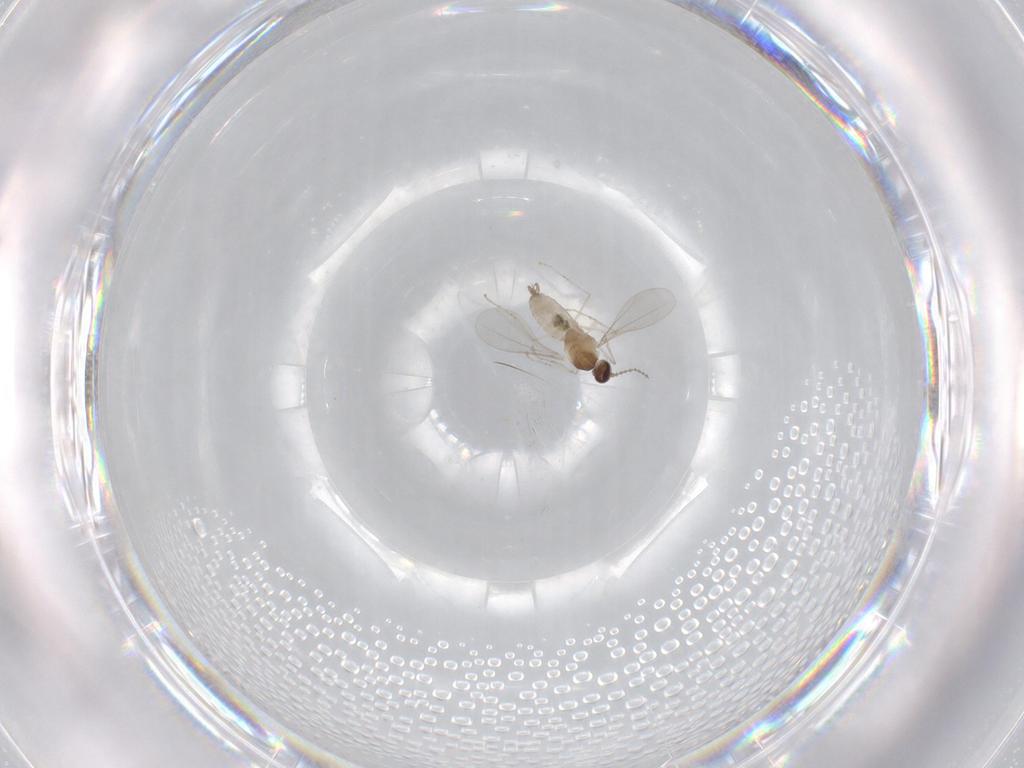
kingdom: Animalia
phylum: Arthropoda
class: Insecta
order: Diptera
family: Cecidomyiidae
